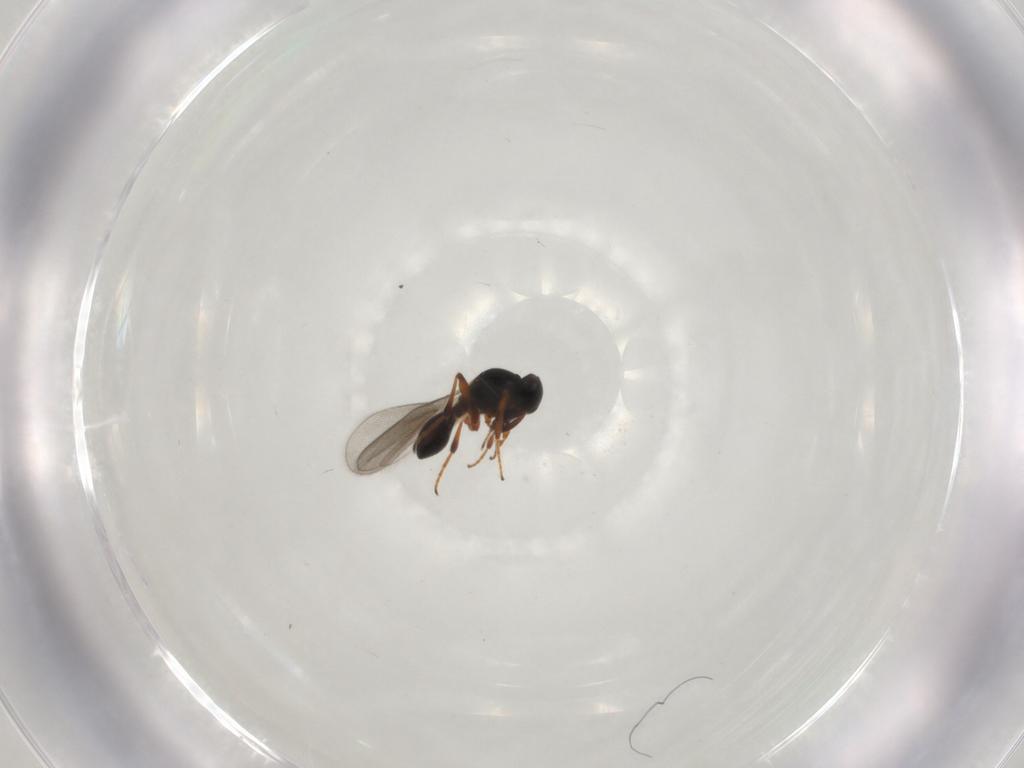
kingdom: Animalia
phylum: Arthropoda
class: Insecta
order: Hymenoptera
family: Platygastridae
